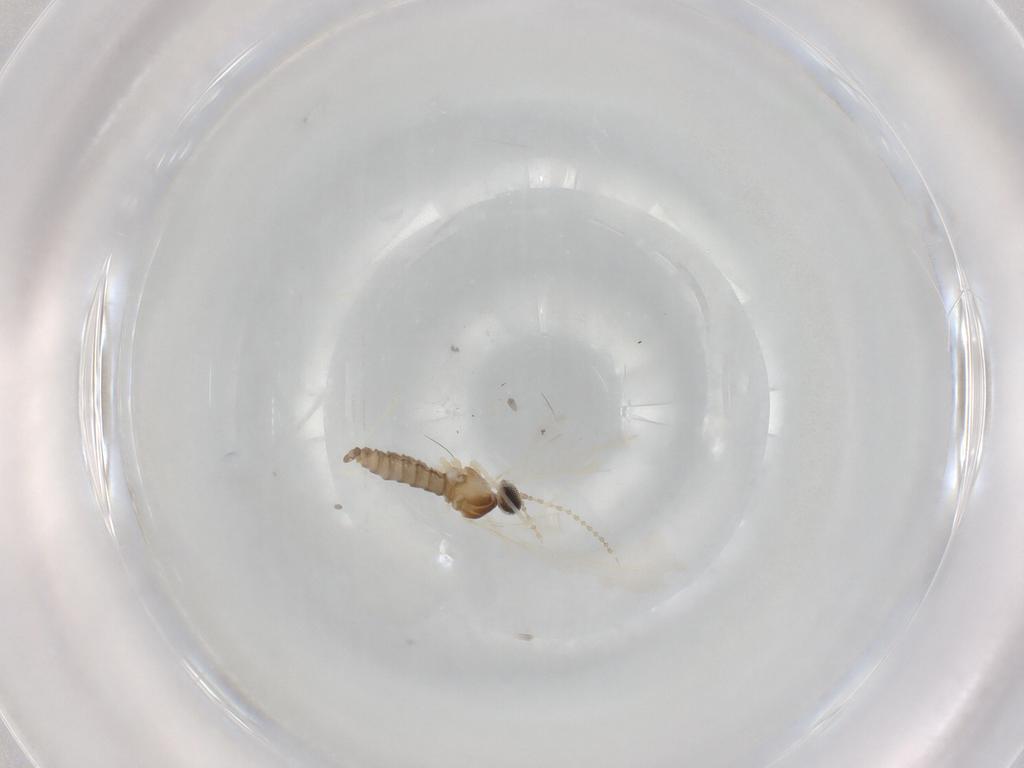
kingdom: Animalia
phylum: Arthropoda
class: Insecta
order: Diptera
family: Cecidomyiidae
